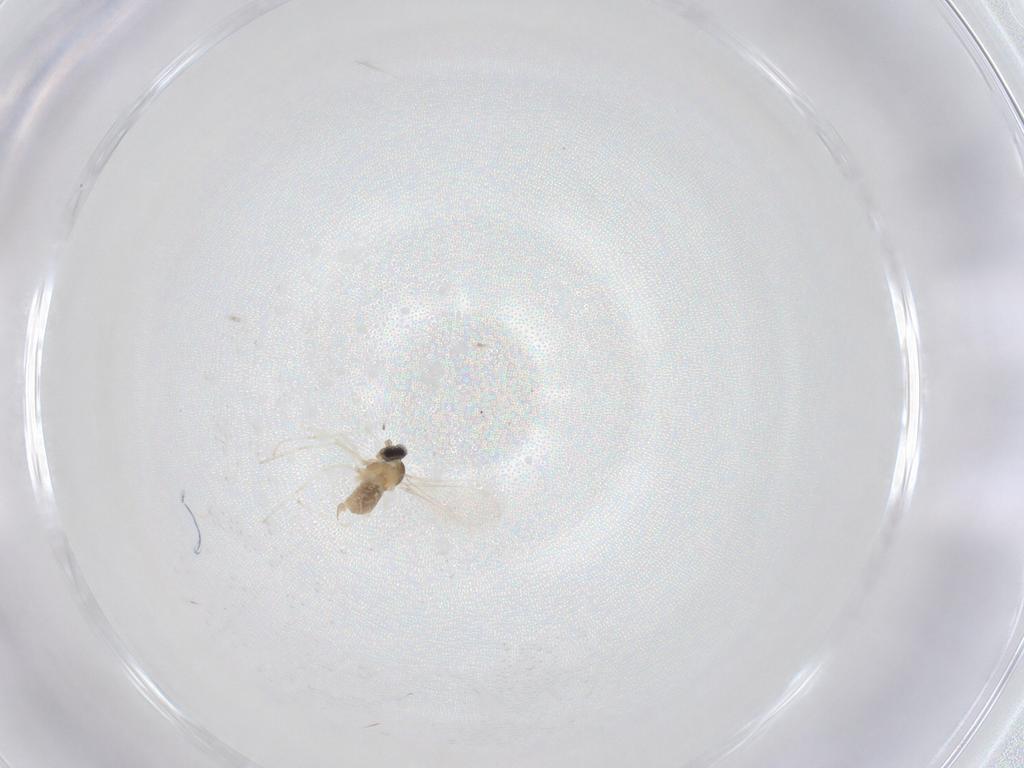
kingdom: Animalia
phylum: Arthropoda
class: Insecta
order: Diptera
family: Cecidomyiidae
